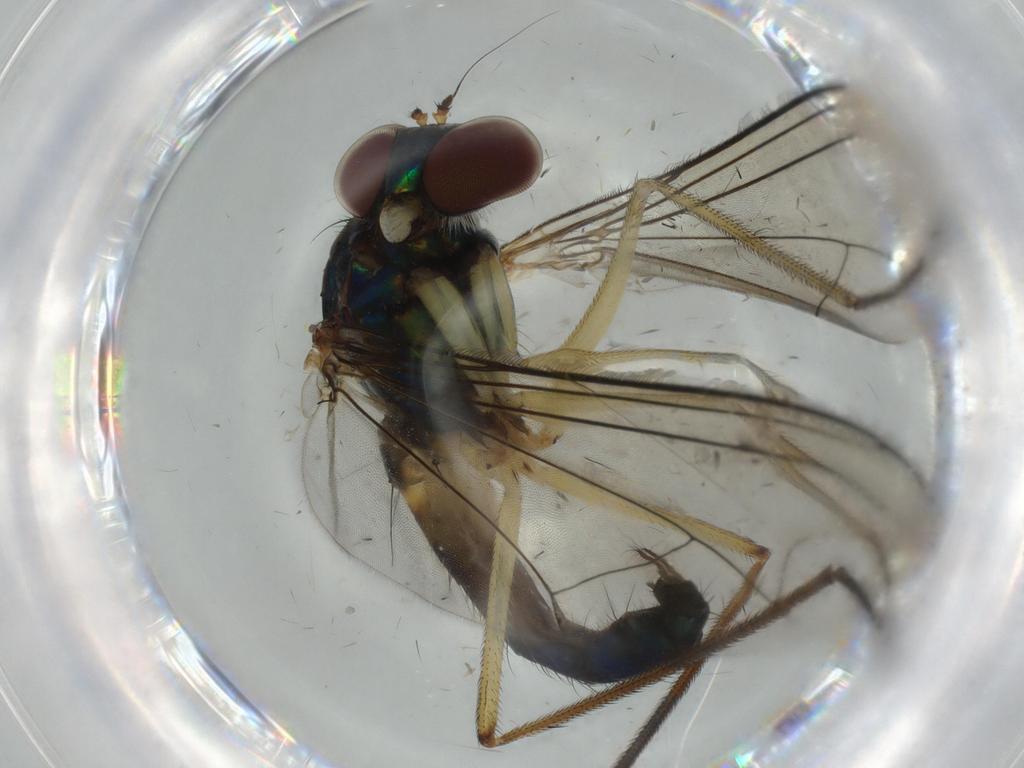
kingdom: Animalia
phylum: Arthropoda
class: Insecta
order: Diptera
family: Dolichopodidae
